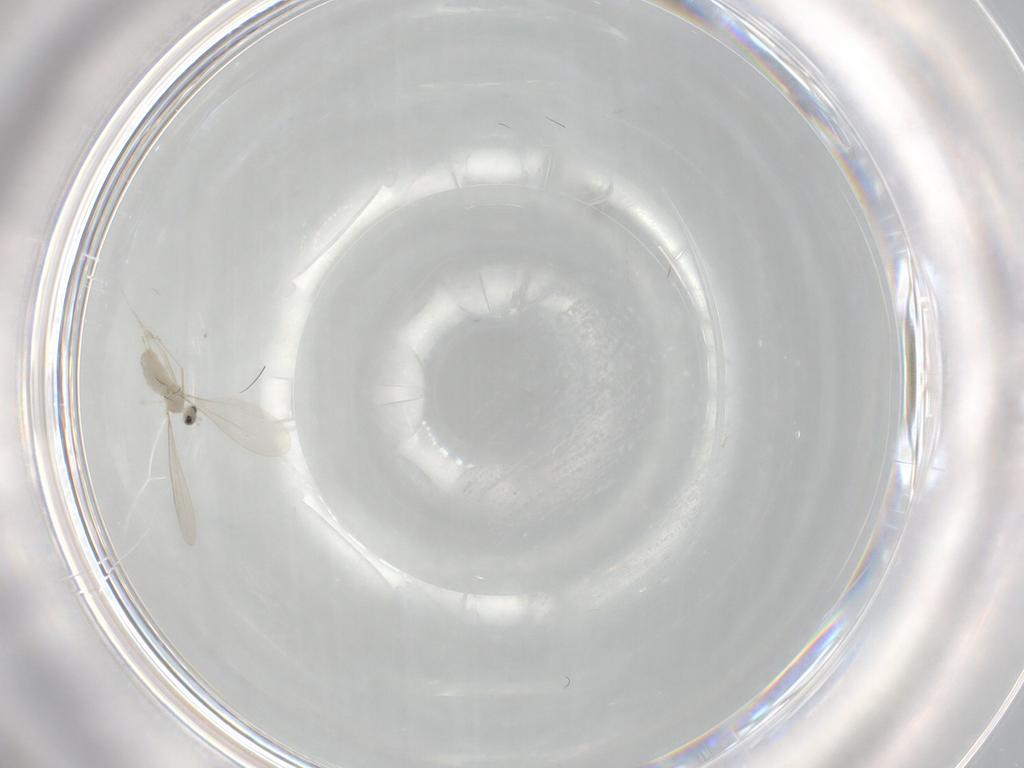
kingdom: Animalia
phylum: Arthropoda
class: Insecta
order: Diptera
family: Cecidomyiidae
